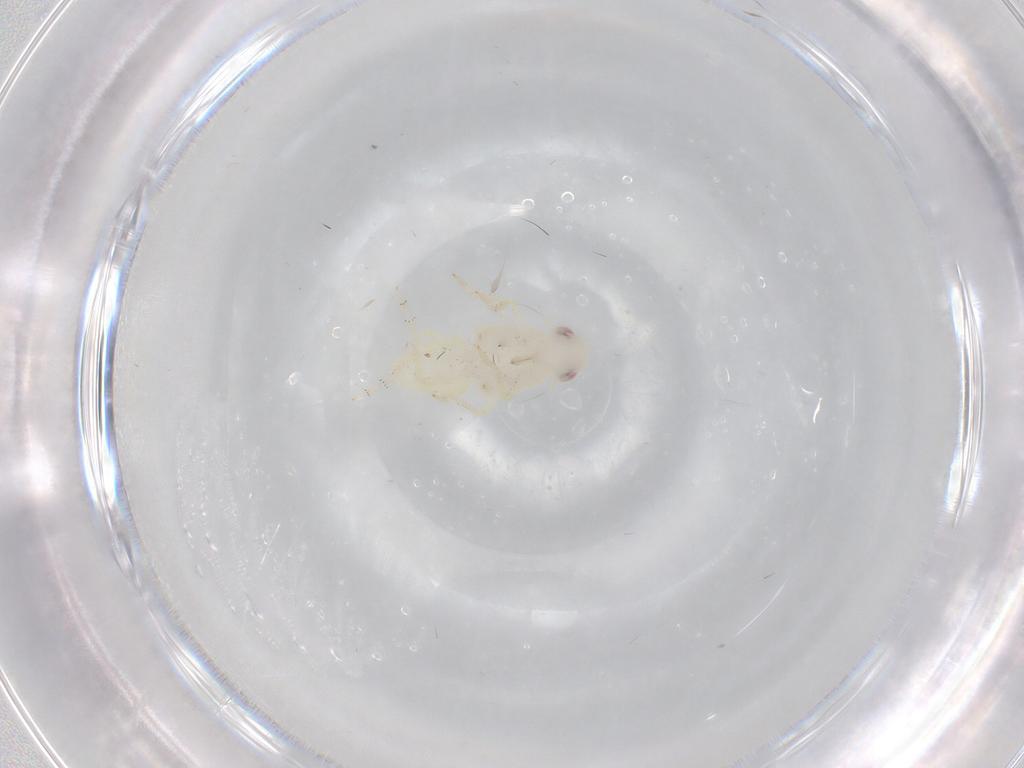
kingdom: Animalia
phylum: Arthropoda
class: Insecta
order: Hemiptera
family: Tropiduchidae
